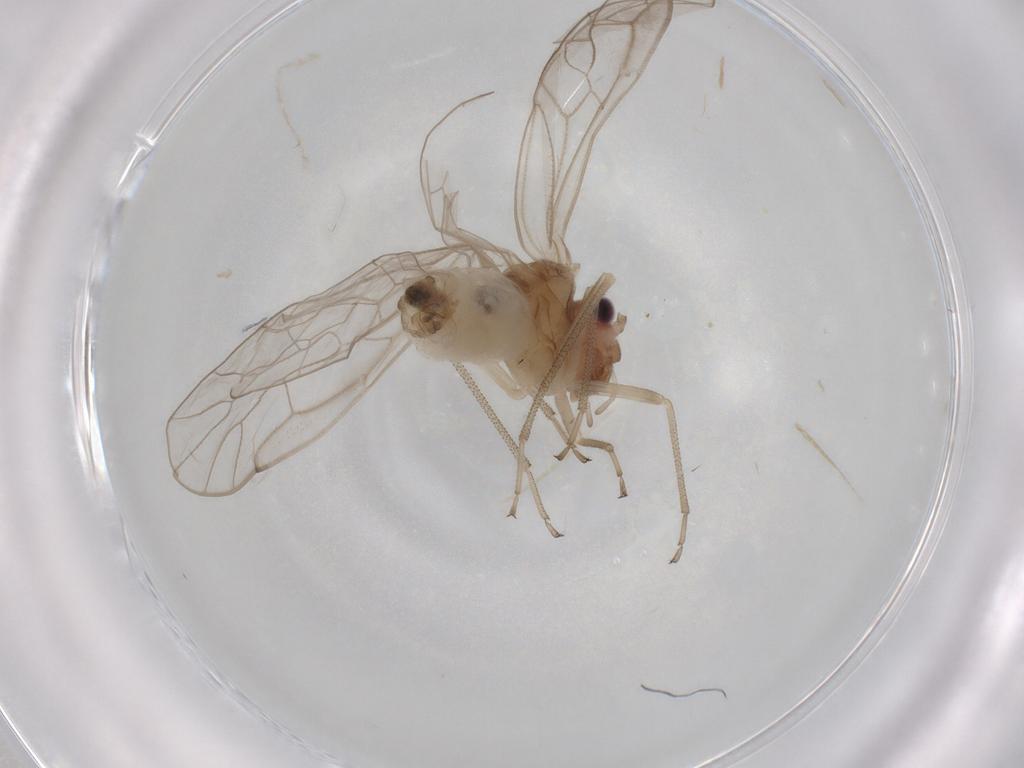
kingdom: Animalia
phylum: Arthropoda
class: Insecta
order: Psocodea
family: Stenopsocidae
